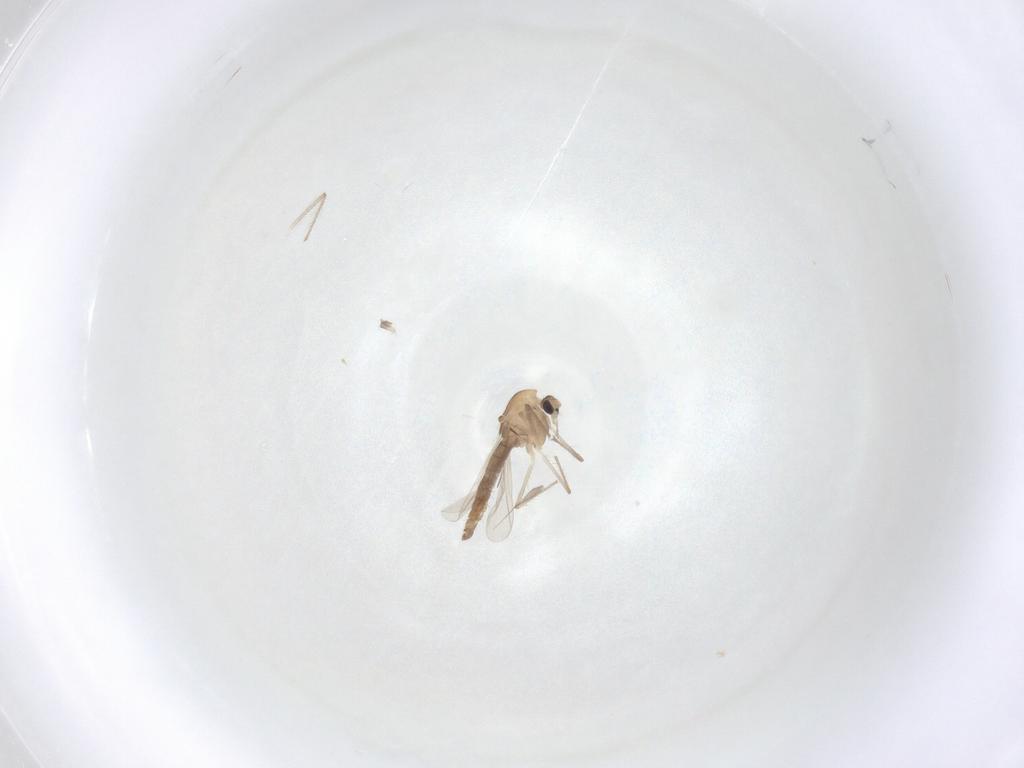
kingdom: Animalia
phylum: Arthropoda
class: Insecta
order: Diptera
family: Chironomidae
